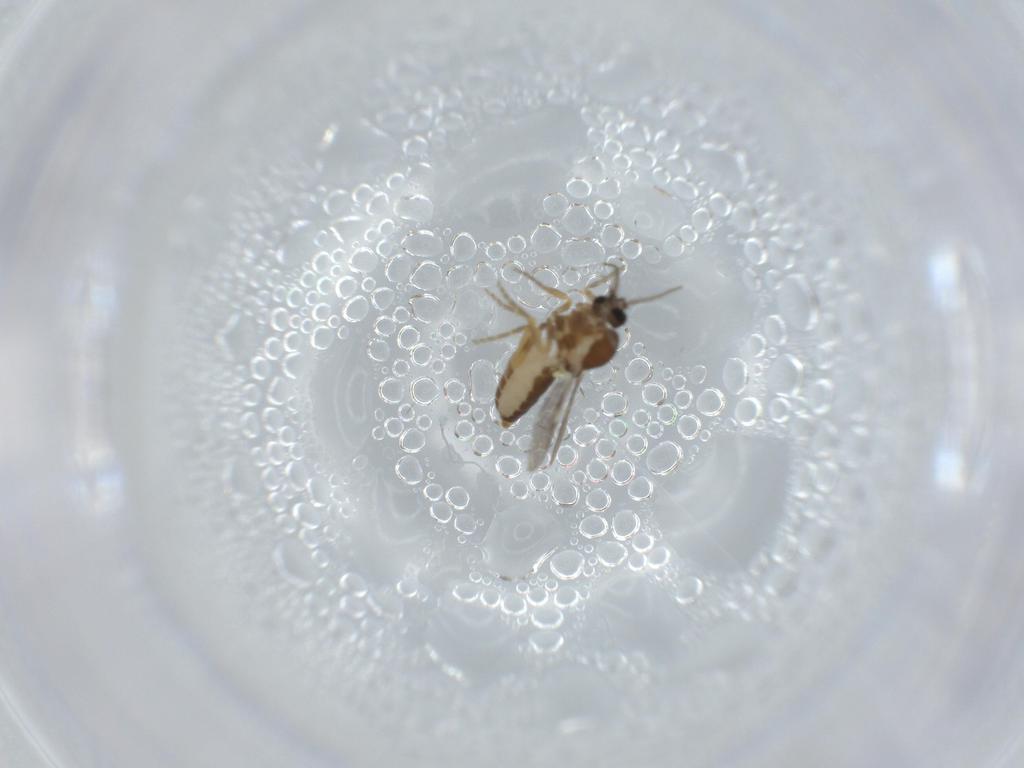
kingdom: Animalia
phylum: Arthropoda
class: Insecta
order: Diptera
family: Ceratopogonidae
